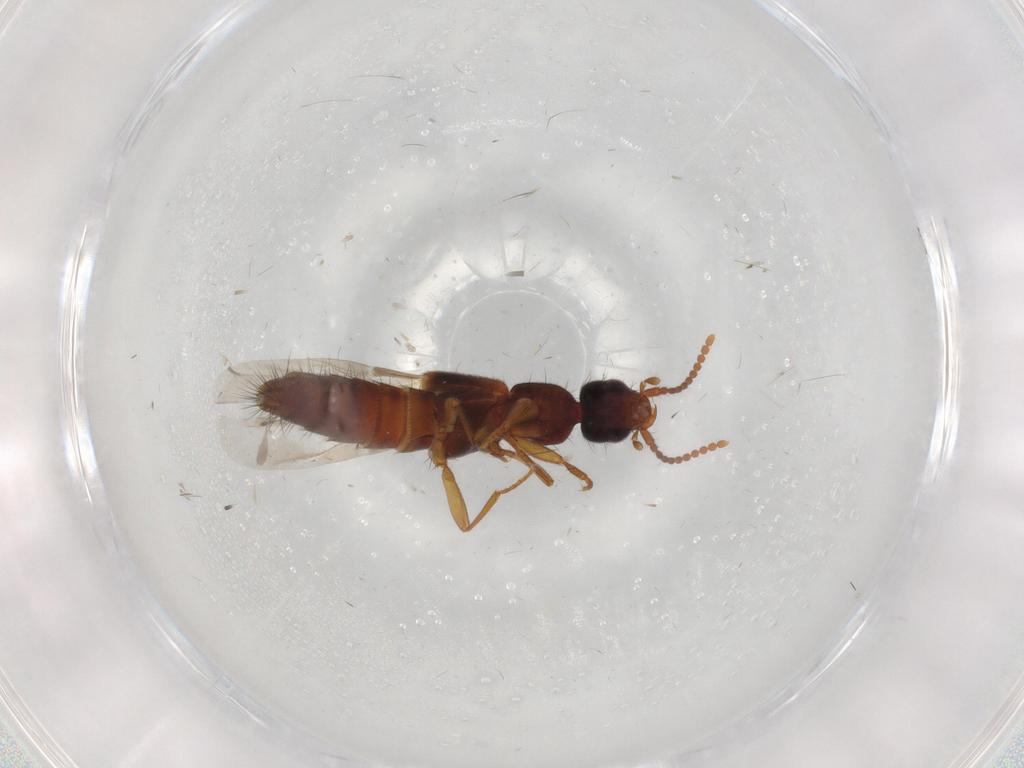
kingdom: Animalia
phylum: Arthropoda
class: Insecta
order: Coleoptera
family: Staphylinidae
